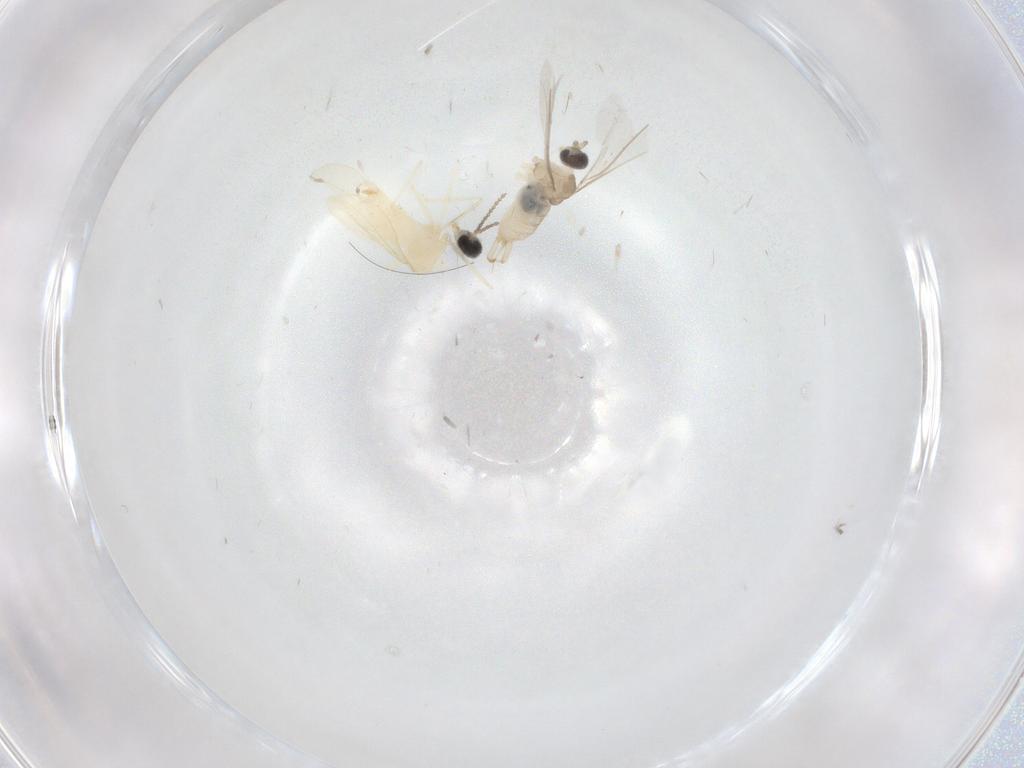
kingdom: Animalia
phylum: Arthropoda
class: Insecta
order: Diptera
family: Cecidomyiidae
